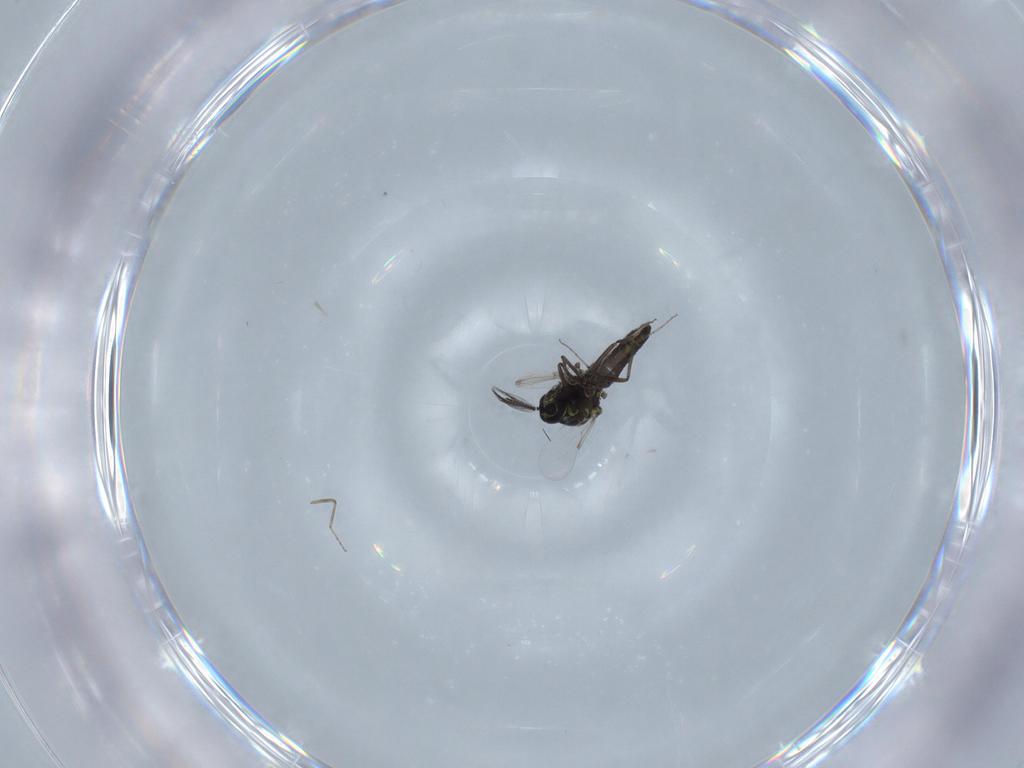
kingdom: Animalia
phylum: Arthropoda
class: Insecta
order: Diptera
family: Ceratopogonidae
